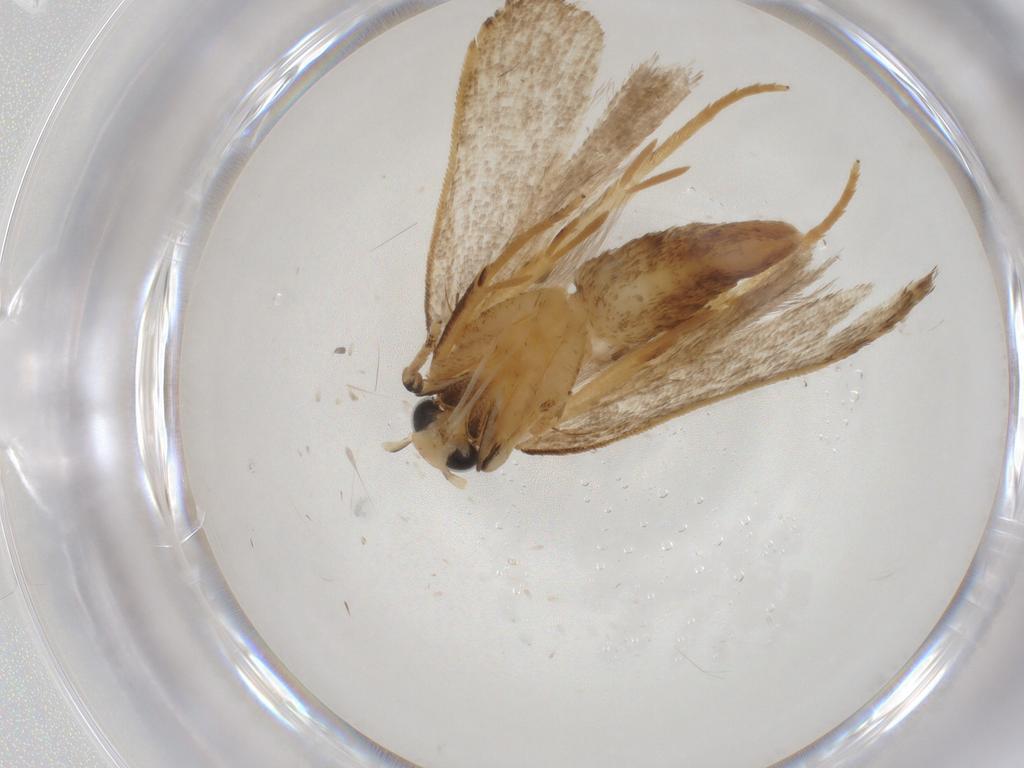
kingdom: Animalia
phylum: Arthropoda
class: Insecta
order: Lepidoptera
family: Gelechiidae
